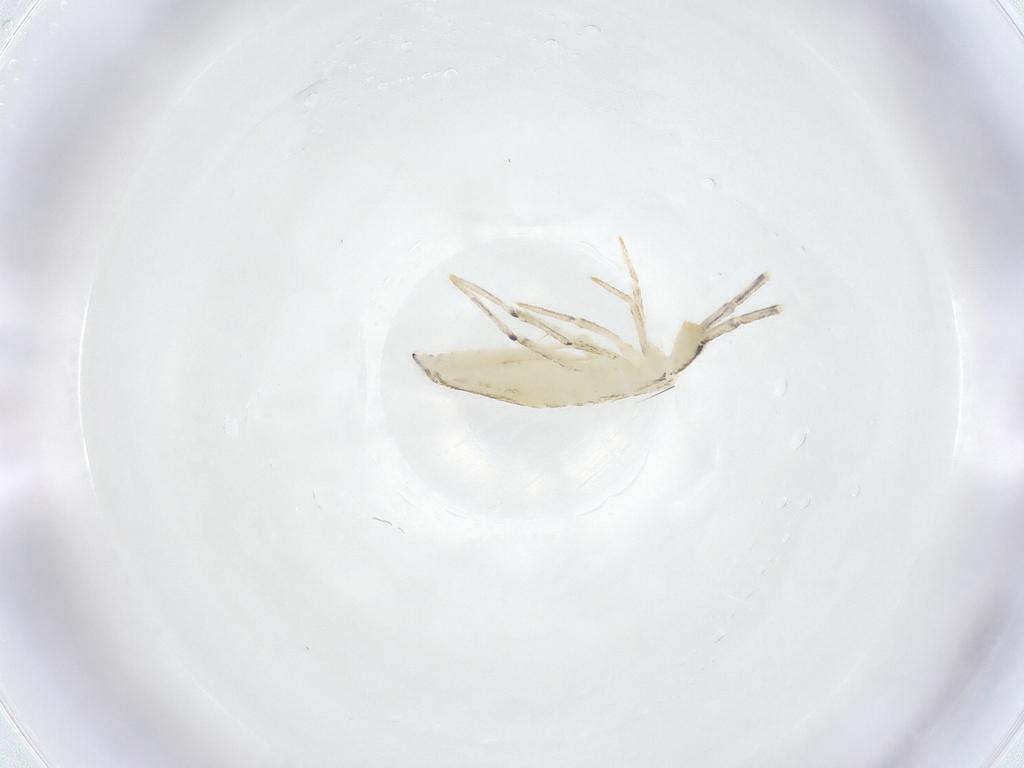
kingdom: Animalia
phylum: Arthropoda
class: Collembola
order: Entomobryomorpha
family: Entomobryidae
